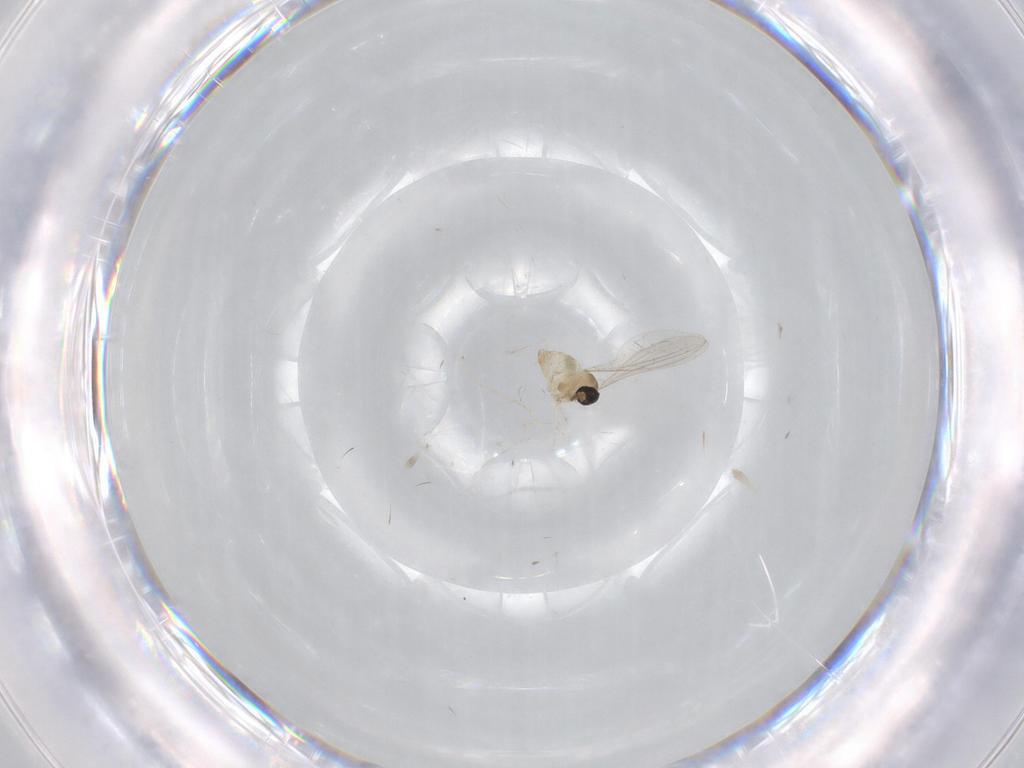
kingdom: Animalia
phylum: Arthropoda
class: Insecta
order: Diptera
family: Cecidomyiidae
